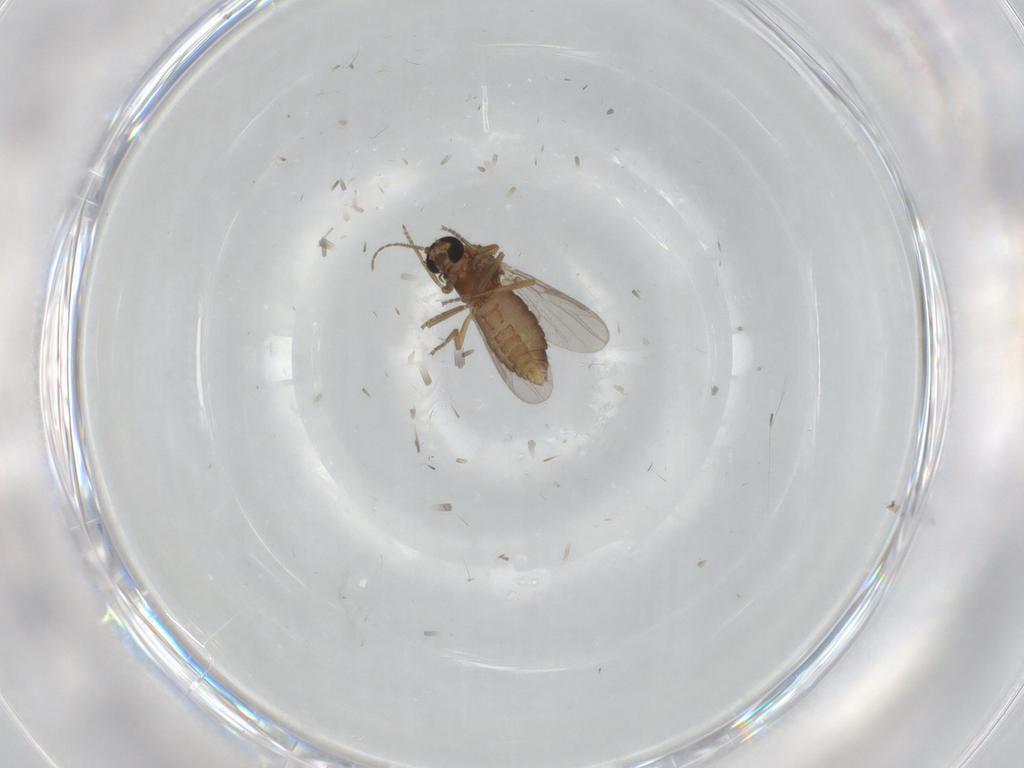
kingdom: Animalia
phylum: Arthropoda
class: Insecta
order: Diptera
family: Ceratopogonidae
